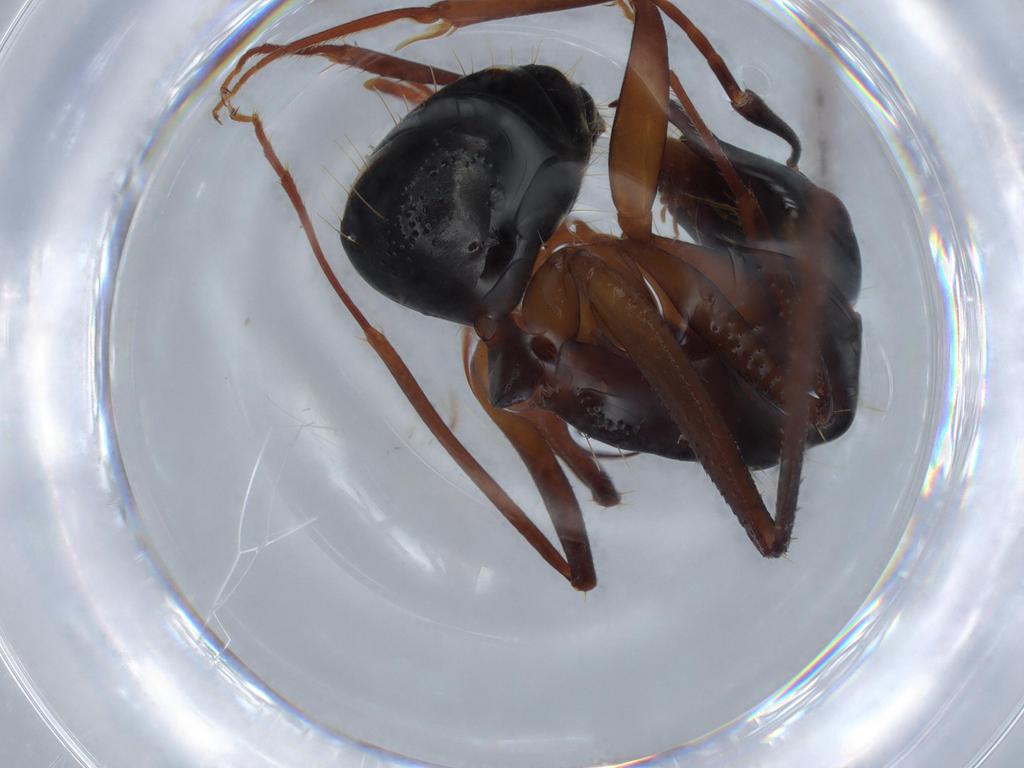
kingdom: Animalia
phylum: Arthropoda
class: Insecta
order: Hymenoptera
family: Formicidae
